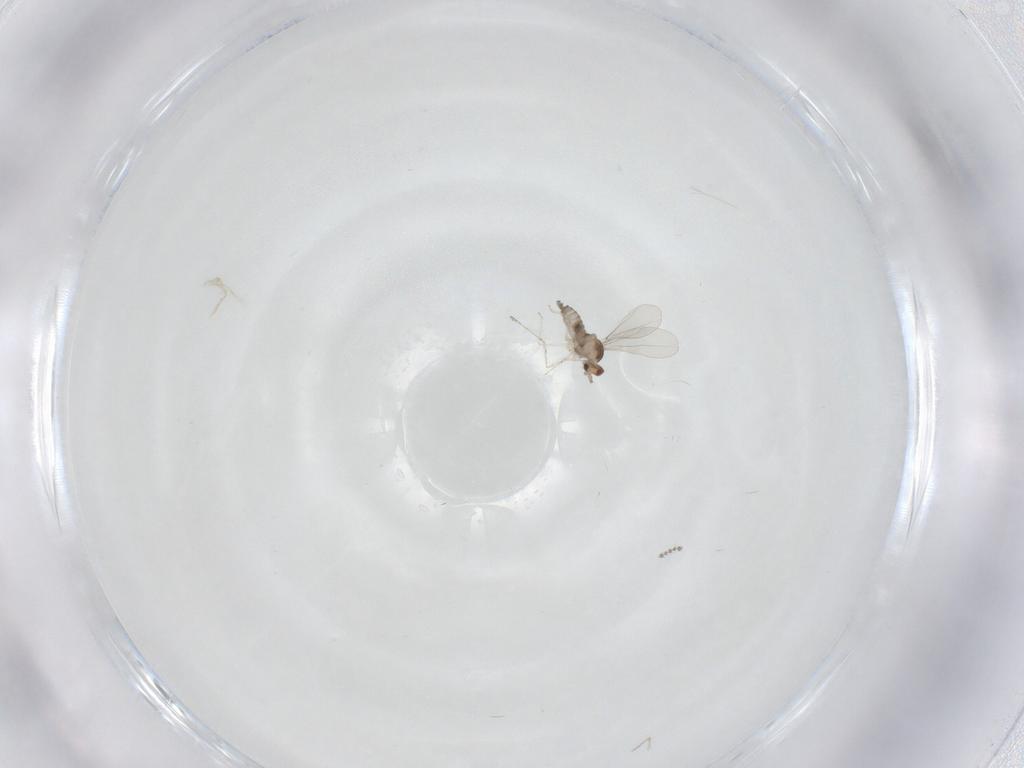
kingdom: Animalia
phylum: Arthropoda
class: Insecta
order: Diptera
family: Cecidomyiidae
